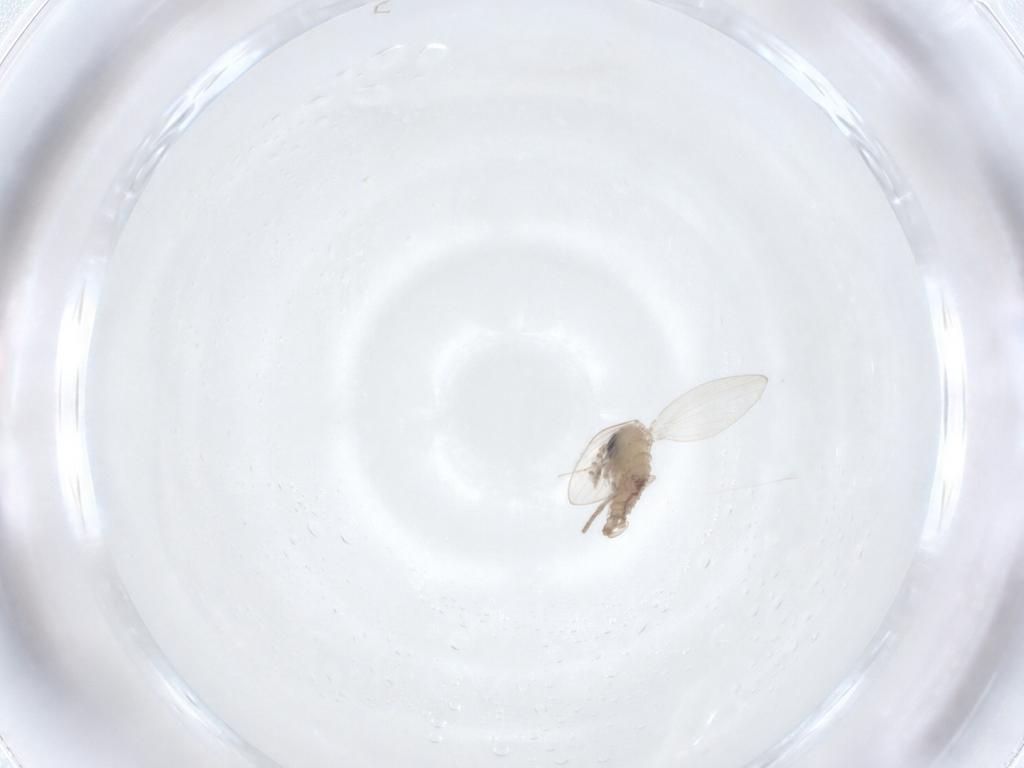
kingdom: Animalia
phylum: Arthropoda
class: Insecta
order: Diptera
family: Psychodidae
